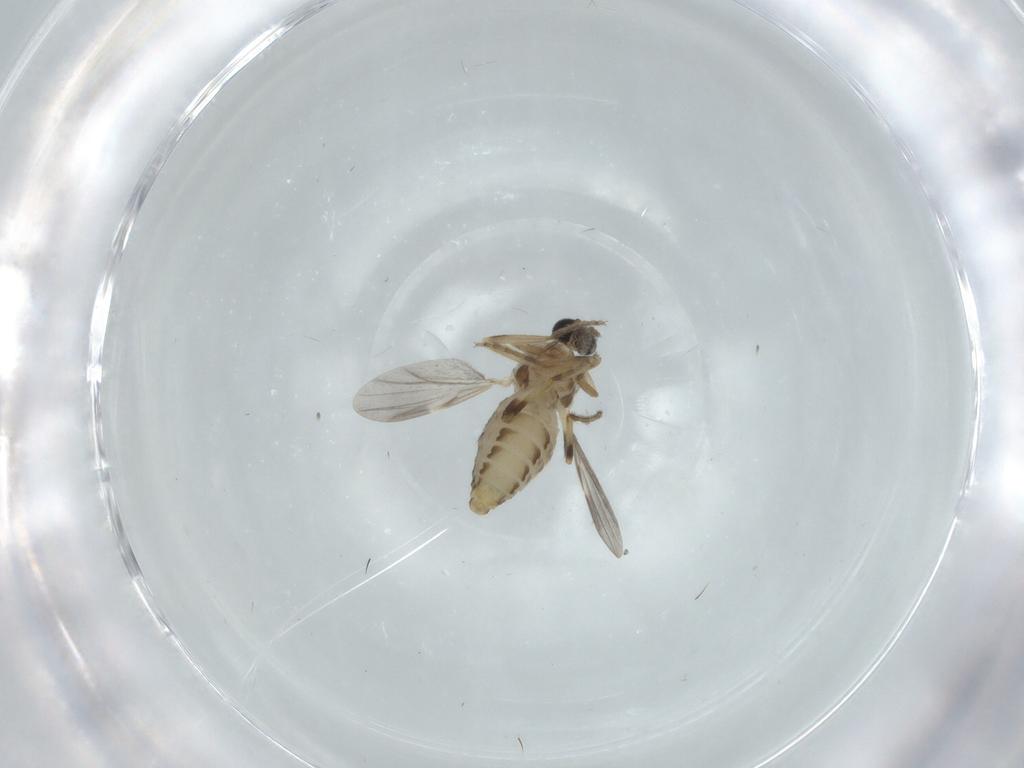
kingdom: Animalia
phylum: Arthropoda
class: Insecta
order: Diptera
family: Ceratopogonidae
